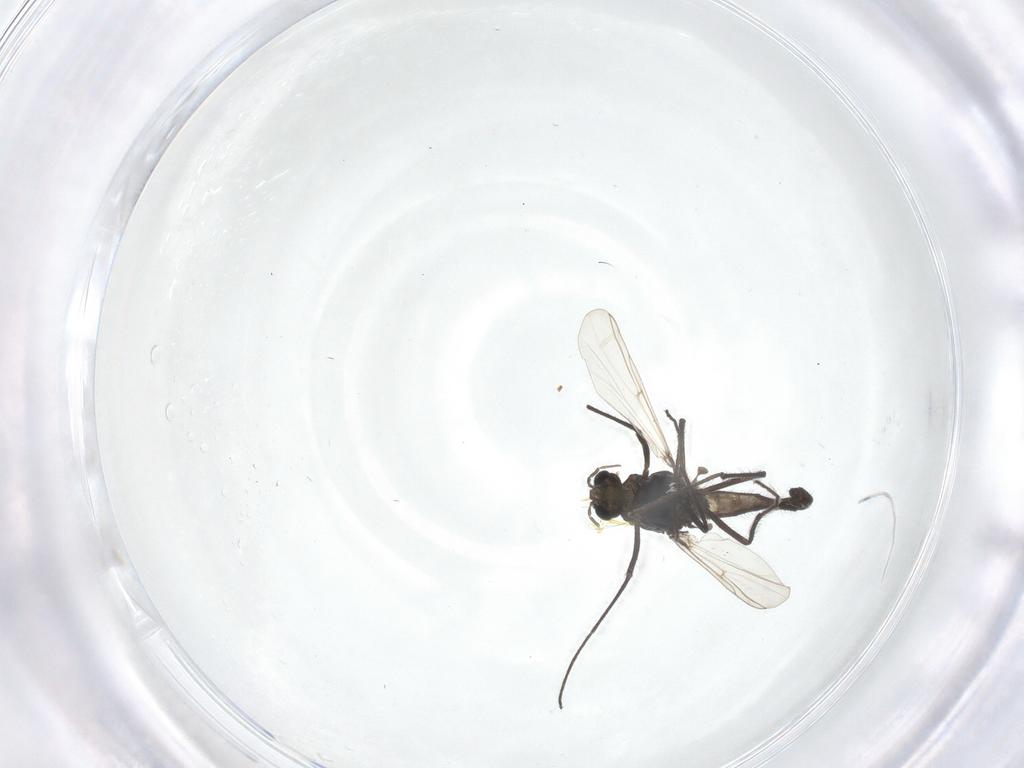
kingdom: Animalia
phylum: Arthropoda
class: Insecta
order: Diptera
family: Chironomidae
